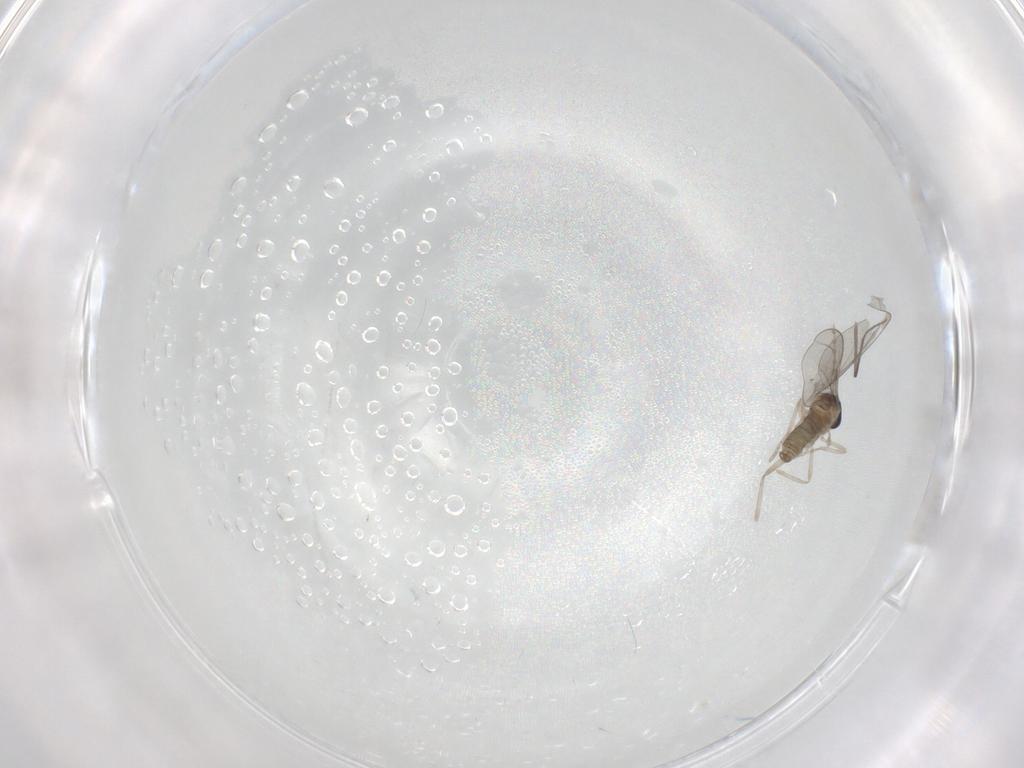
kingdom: Animalia
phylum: Arthropoda
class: Insecta
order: Diptera
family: Chironomidae
